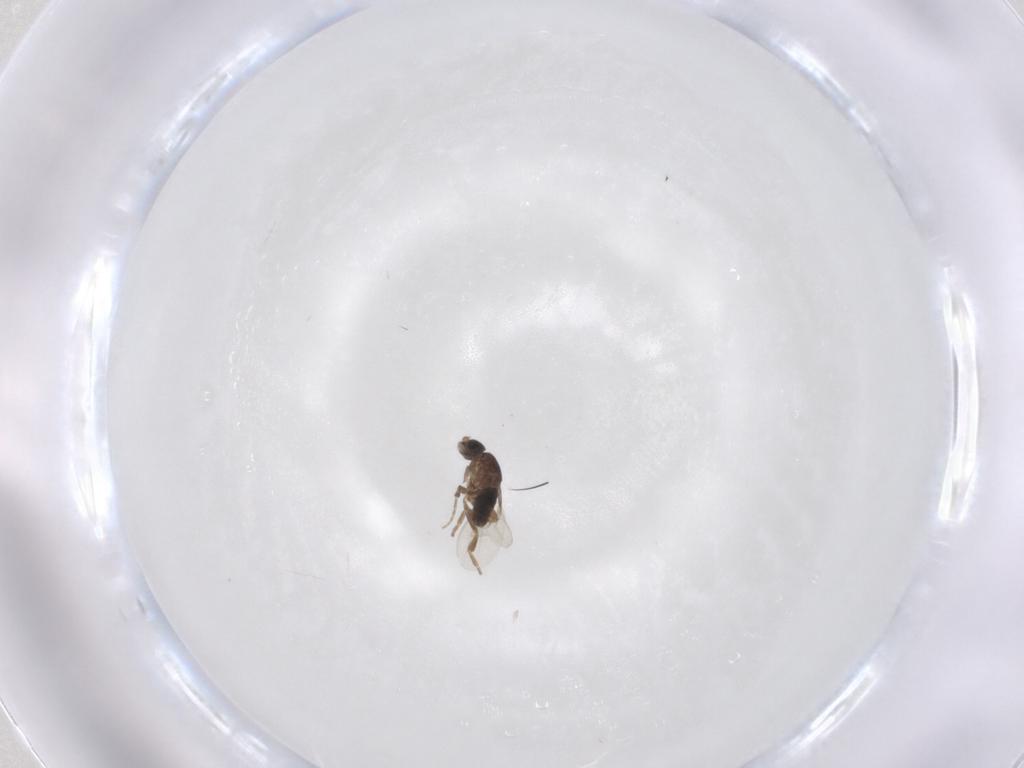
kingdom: Animalia
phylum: Arthropoda
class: Insecta
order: Diptera
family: Phoridae
